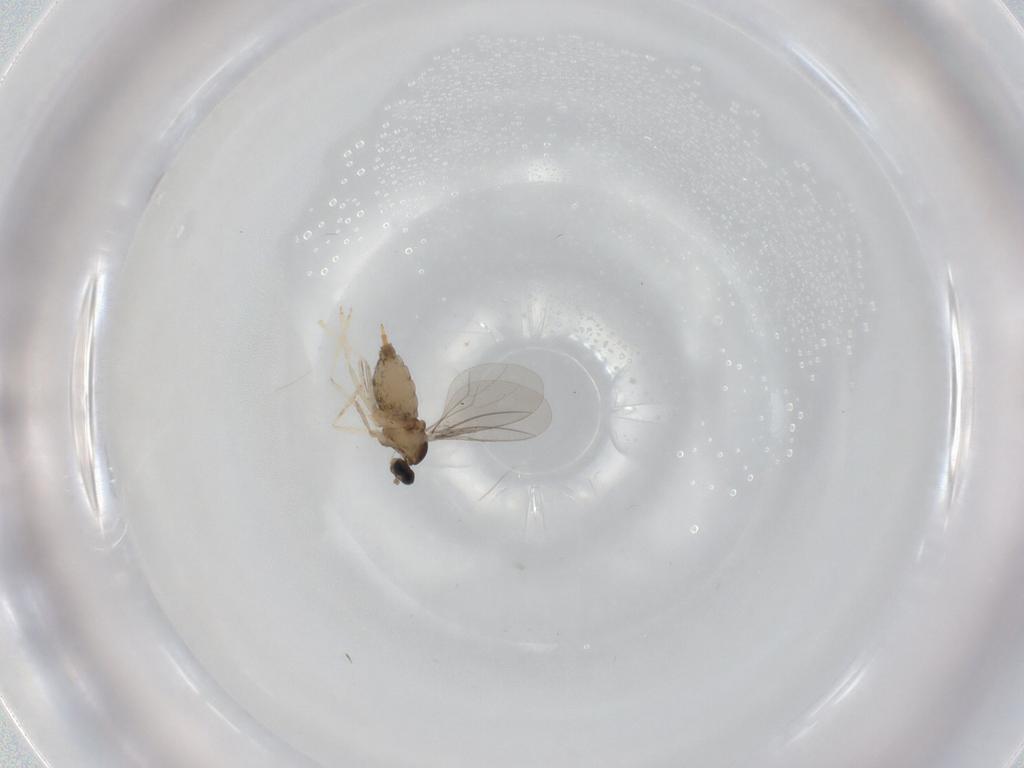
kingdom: Animalia
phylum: Arthropoda
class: Insecta
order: Diptera
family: Cecidomyiidae
